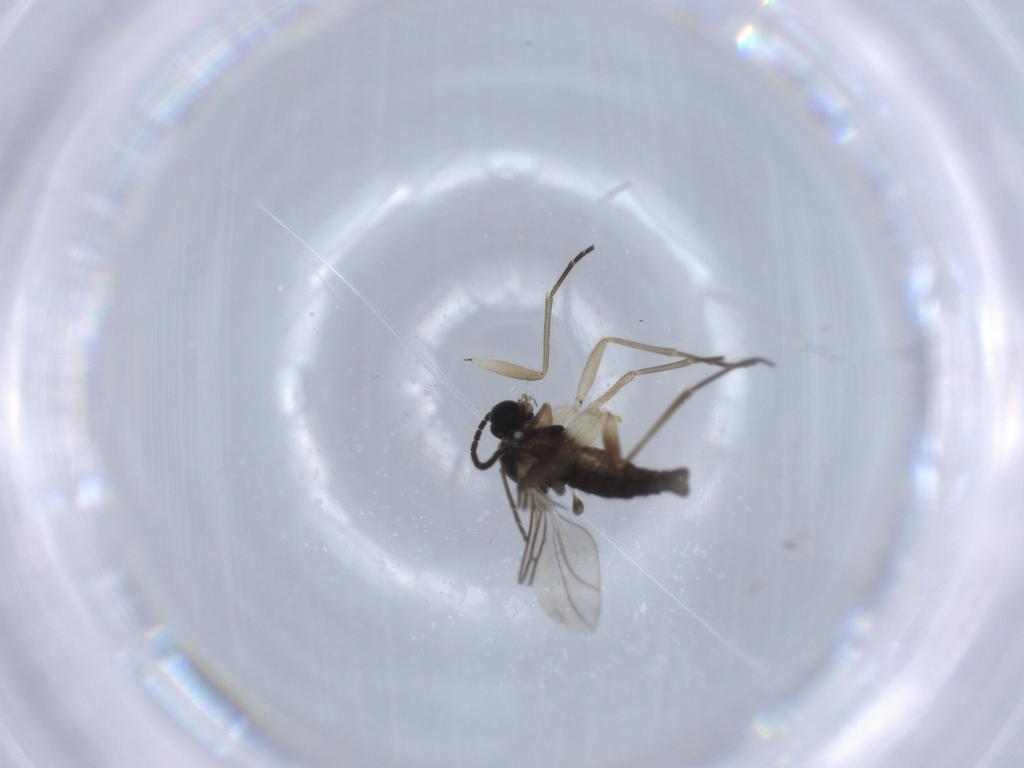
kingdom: Animalia
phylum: Arthropoda
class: Insecta
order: Diptera
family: Sciaridae
